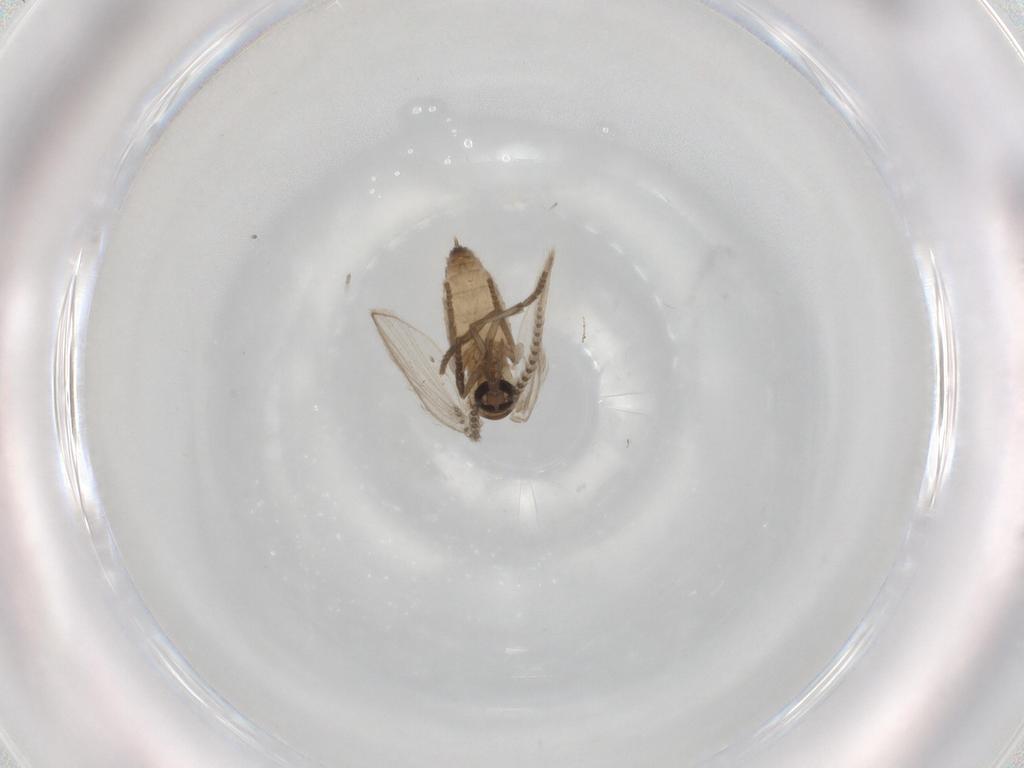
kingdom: Animalia
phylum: Arthropoda
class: Insecta
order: Diptera
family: Psychodidae
